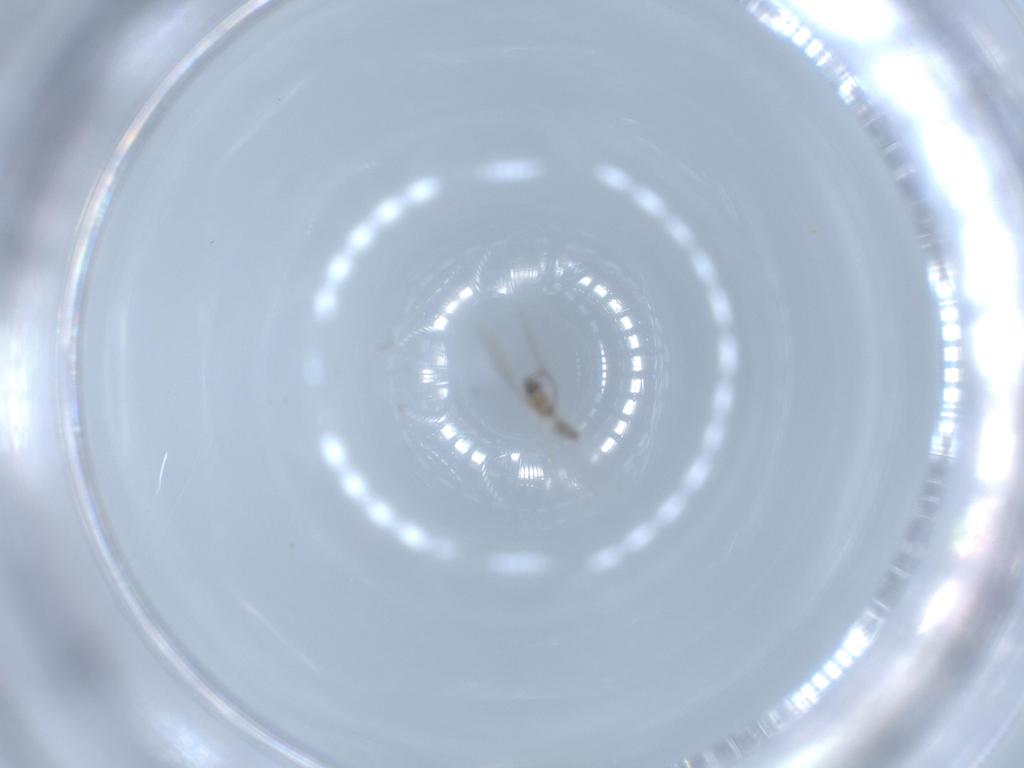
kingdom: Animalia
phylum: Arthropoda
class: Insecta
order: Diptera
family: Cecidomyiidae
